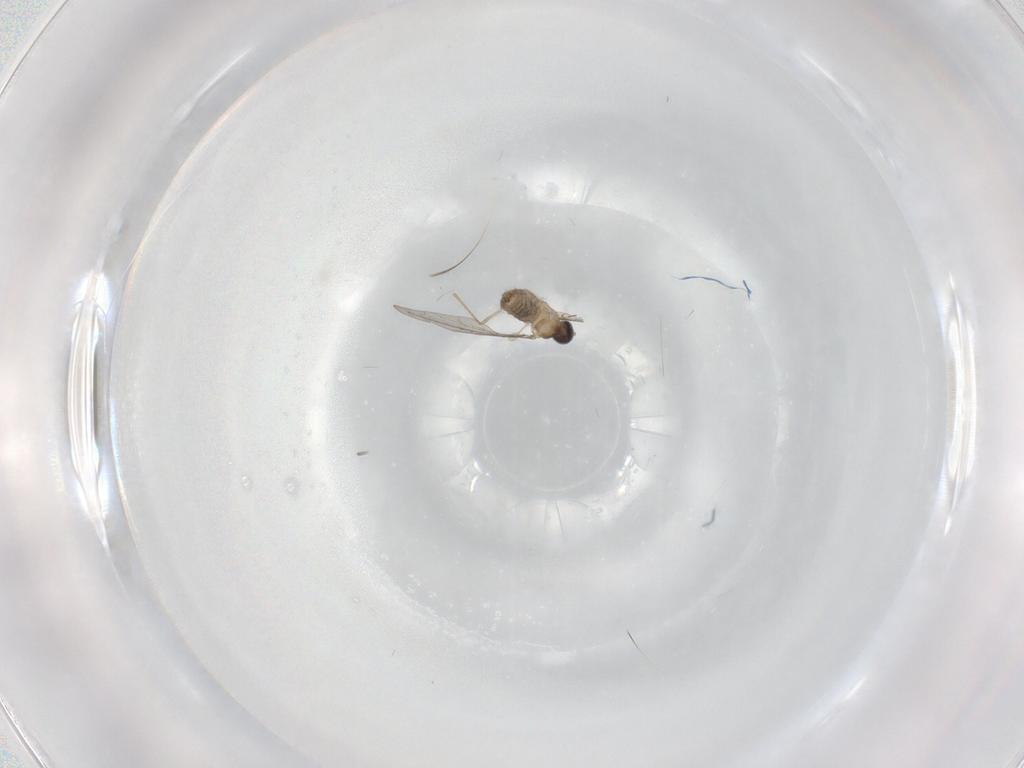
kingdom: Animalia
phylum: Arthropoda
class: Insecta
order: Diptera
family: Cecidomyiidae
